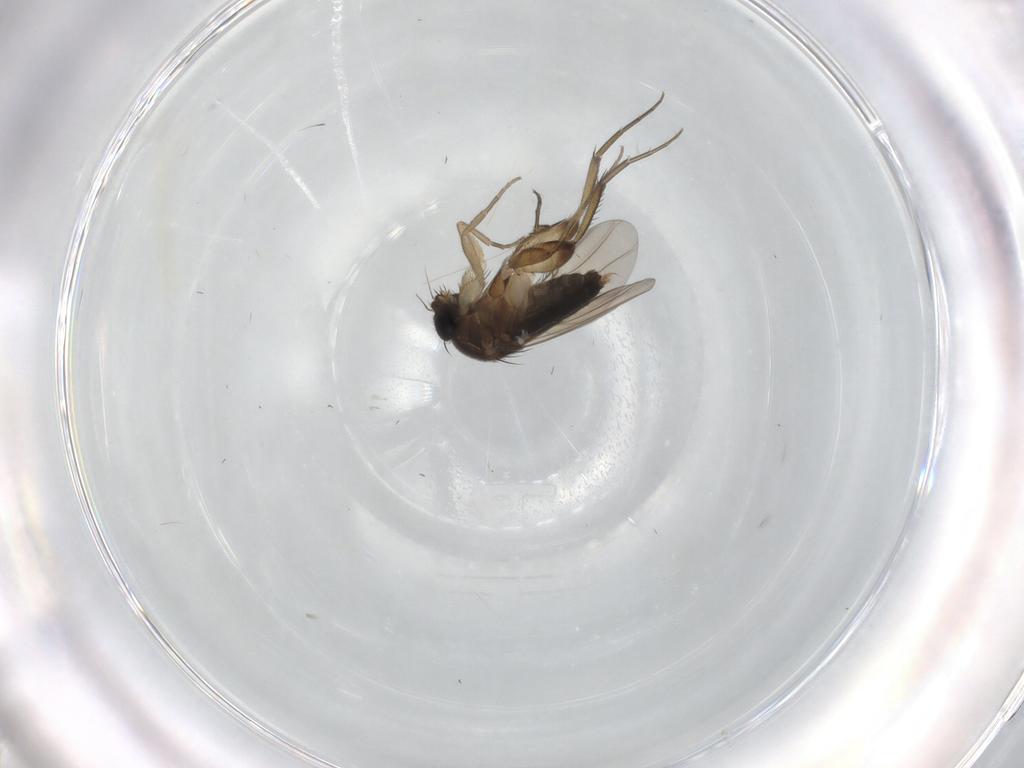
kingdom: Animalia
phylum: Arthropoda
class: Insecta
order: Diptera
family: Phoridae
